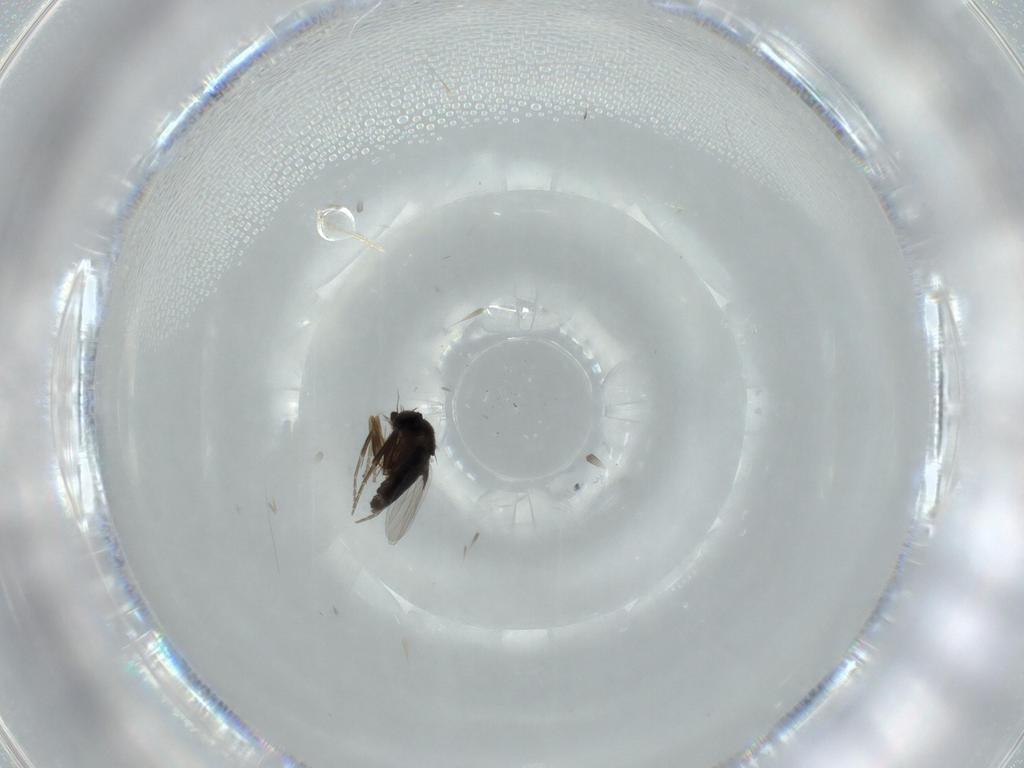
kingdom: Animalia
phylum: Arthropoda
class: Insecta
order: Diptera
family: Phoridae
